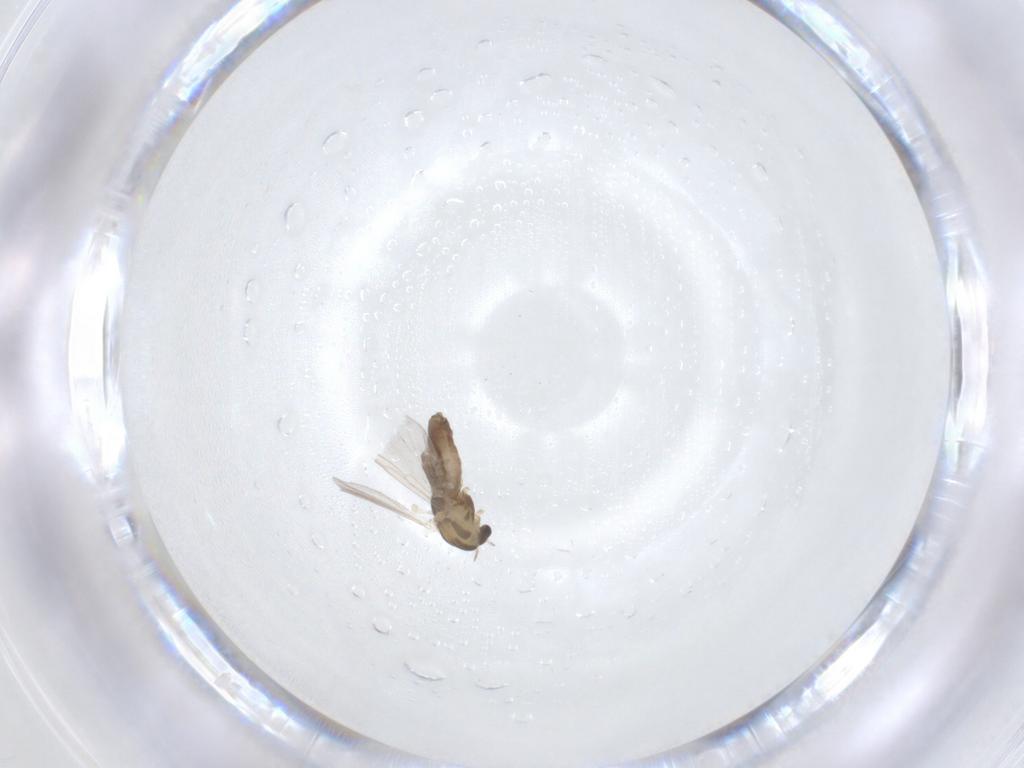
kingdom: Animalia
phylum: Arthropoda
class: Insecta
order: Diptera
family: Chironomidae
